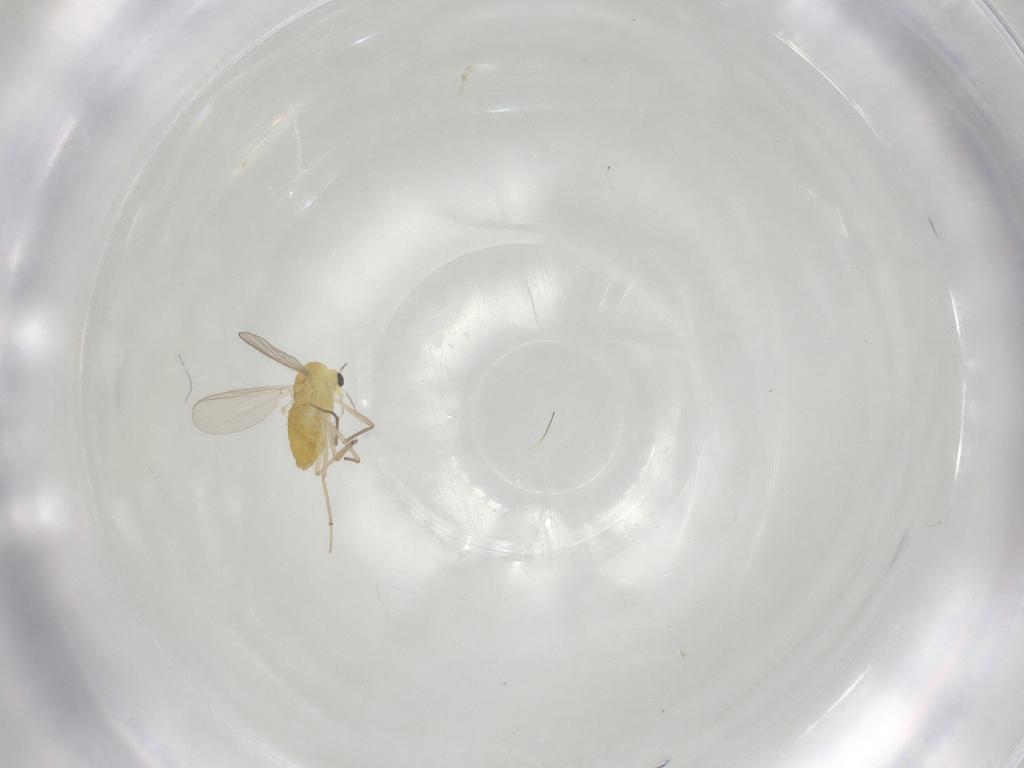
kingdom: Animalia
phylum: Arthropoda
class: Insecta
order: Diptera
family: Chironomidae
